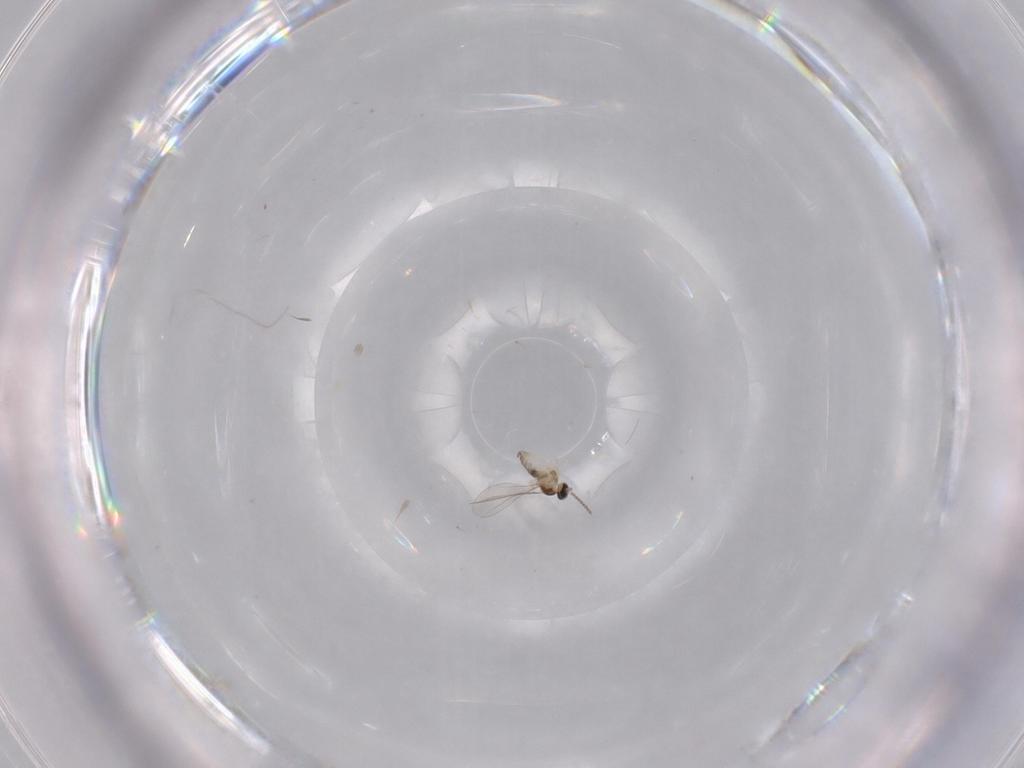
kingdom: Animalia
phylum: Arthropoda
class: Insecta
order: Diptera
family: Cecidomyiidae
